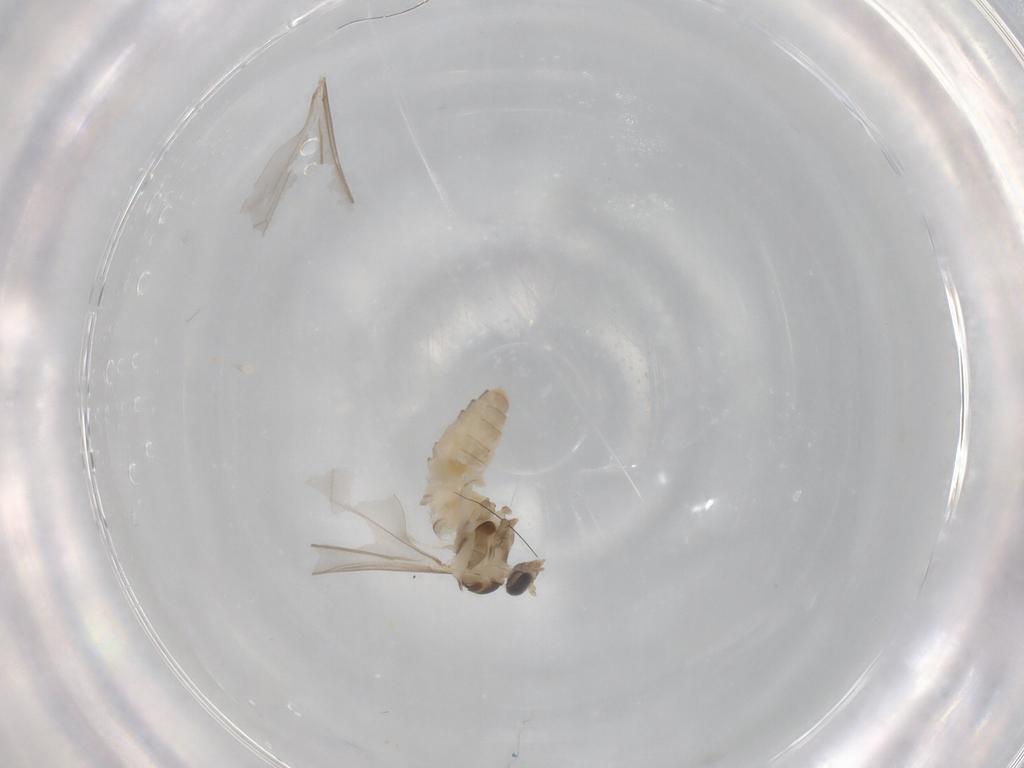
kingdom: Animalia
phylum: Arthropoda
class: Insecta
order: Diptera
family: Cecidomyiidae
